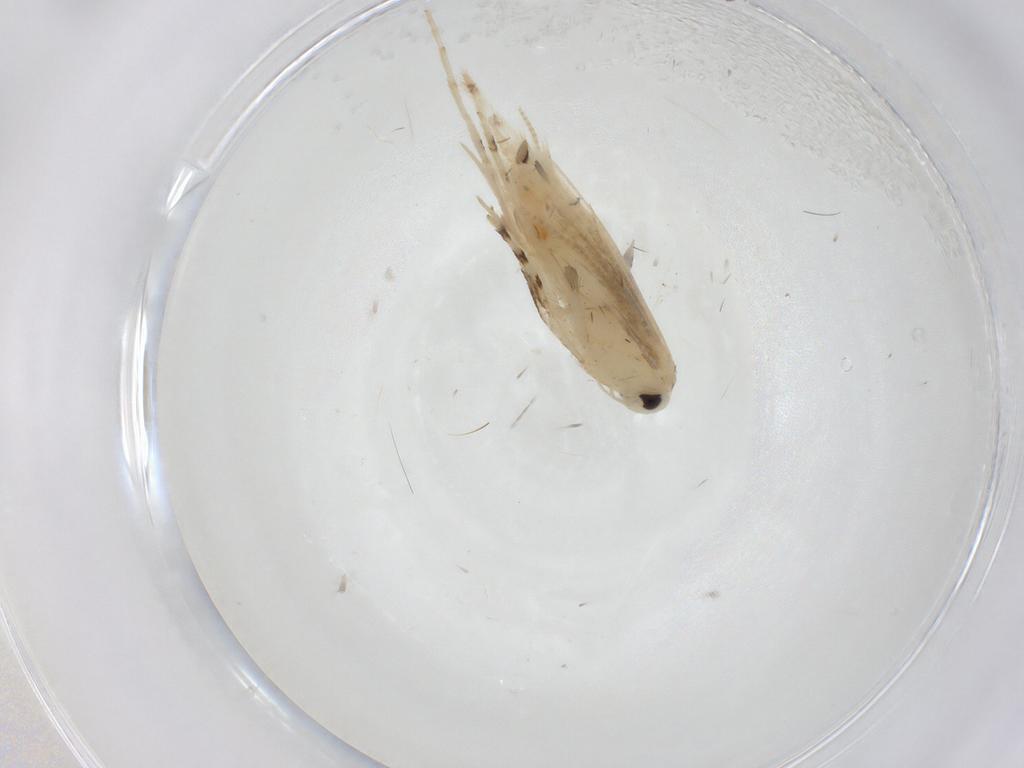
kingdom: Animalia
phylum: Arthropoda
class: Insecta
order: Lepidoptera
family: Gracillariidae
